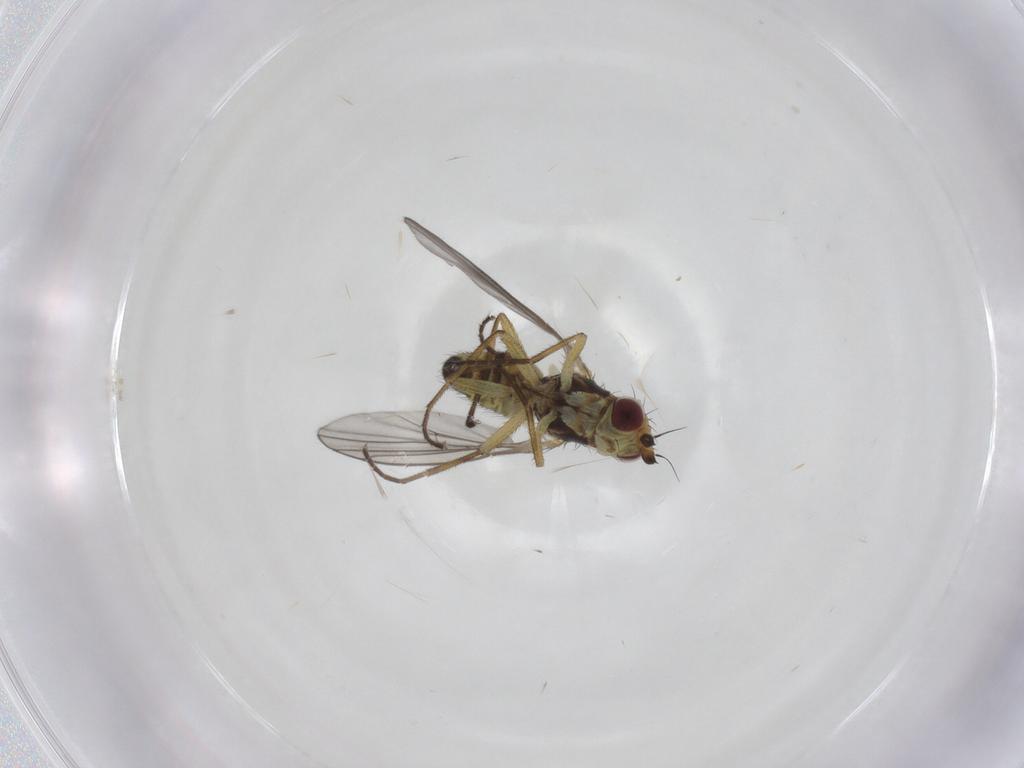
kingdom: Animalia
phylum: Arthropoda
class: Insecta
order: Diptera
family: Agromyzidae
